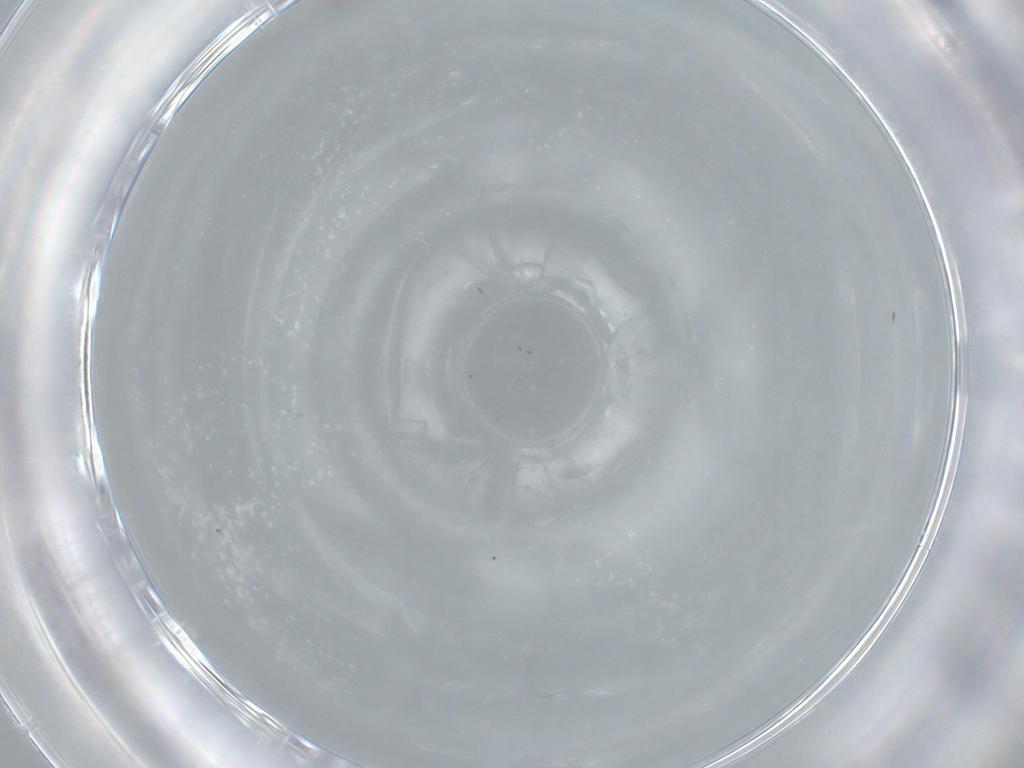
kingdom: Animalia
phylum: Arthropoda
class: Insecta
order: Diptera
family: Sciaridae
